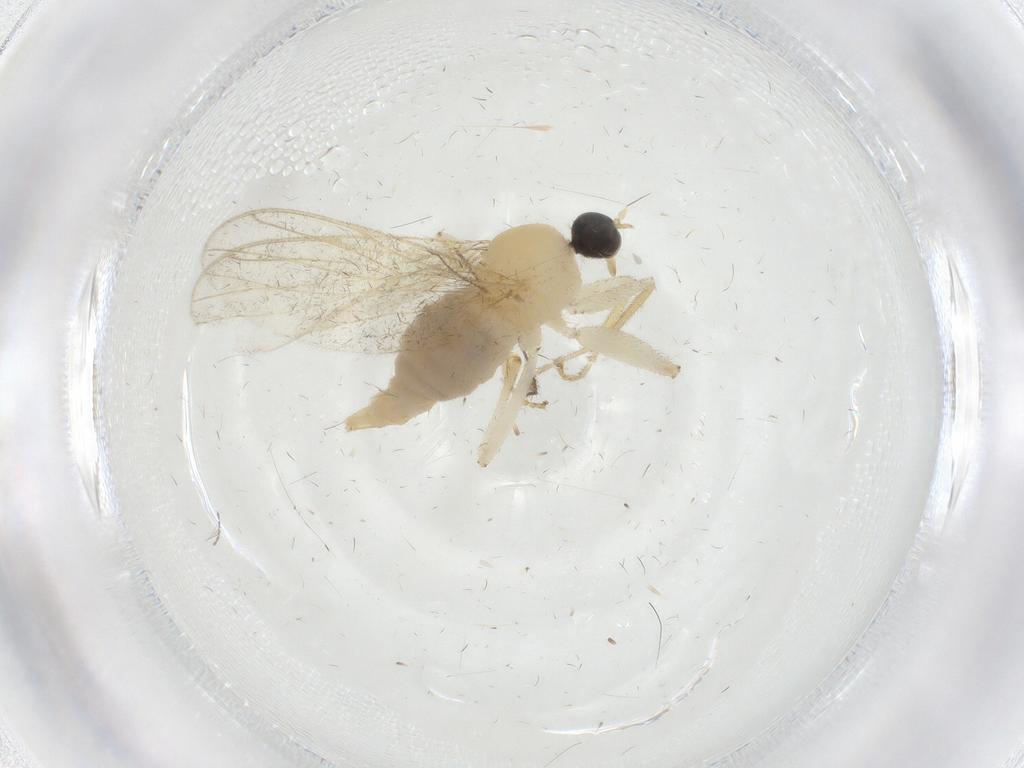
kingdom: Animalia
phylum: Arthropoda
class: Insecta
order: Diptera
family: Hybotidae
